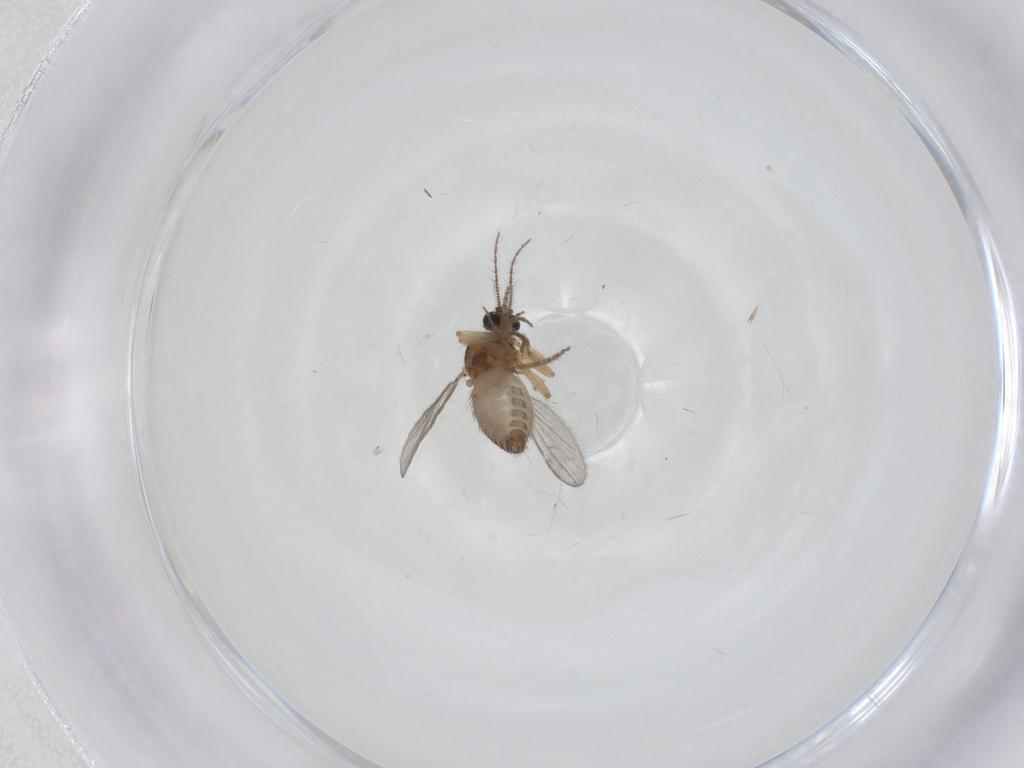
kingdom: Animalia
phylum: Arthropoda
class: Insecta
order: Diptera
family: Ceratopogonidae
